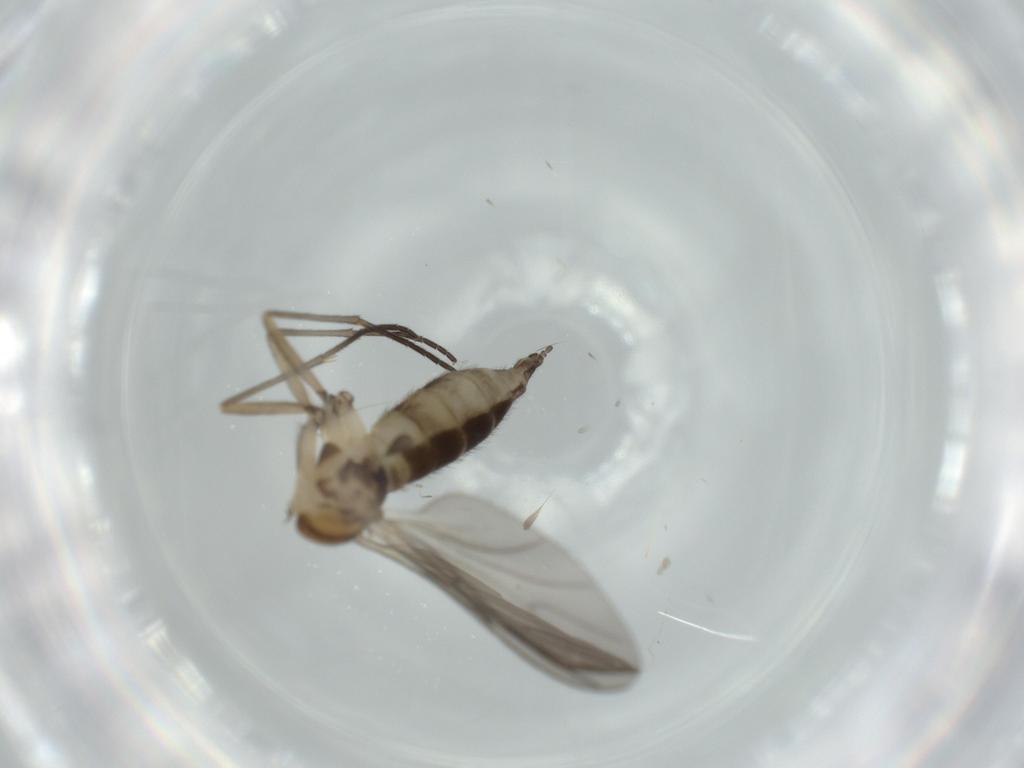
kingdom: Animalia
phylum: Arthropoda
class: Insecta
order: Diptera
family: Sciaridae
